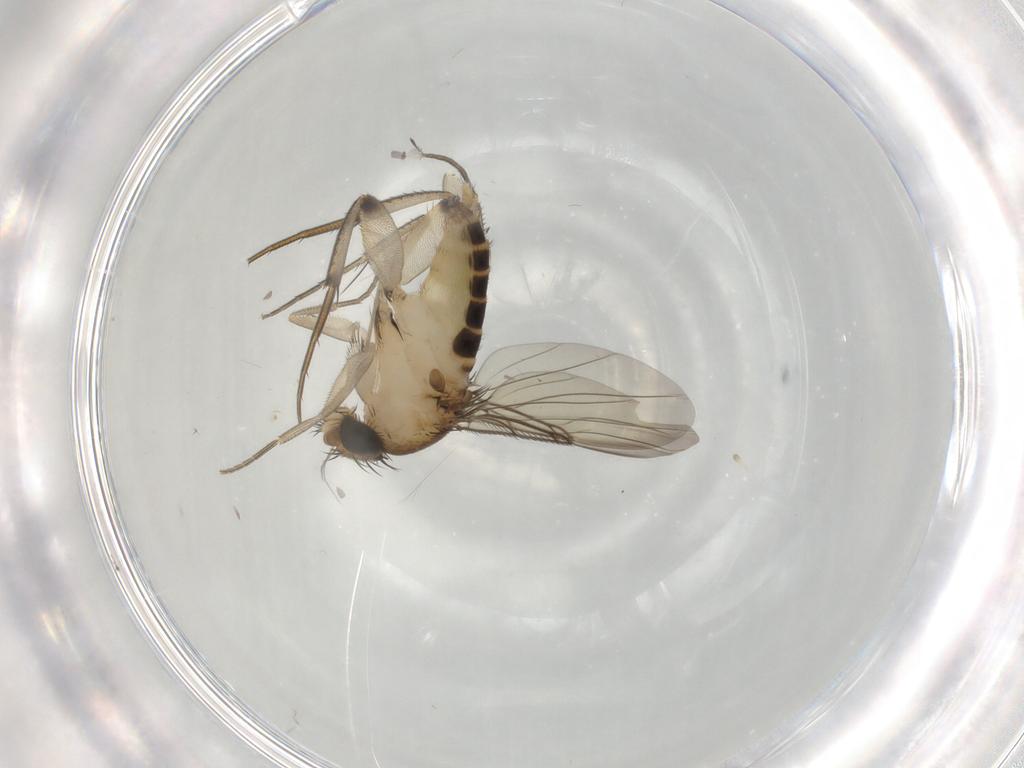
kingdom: Animalia
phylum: Arthropoda
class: Insecta
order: Diptera
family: Phoridae
